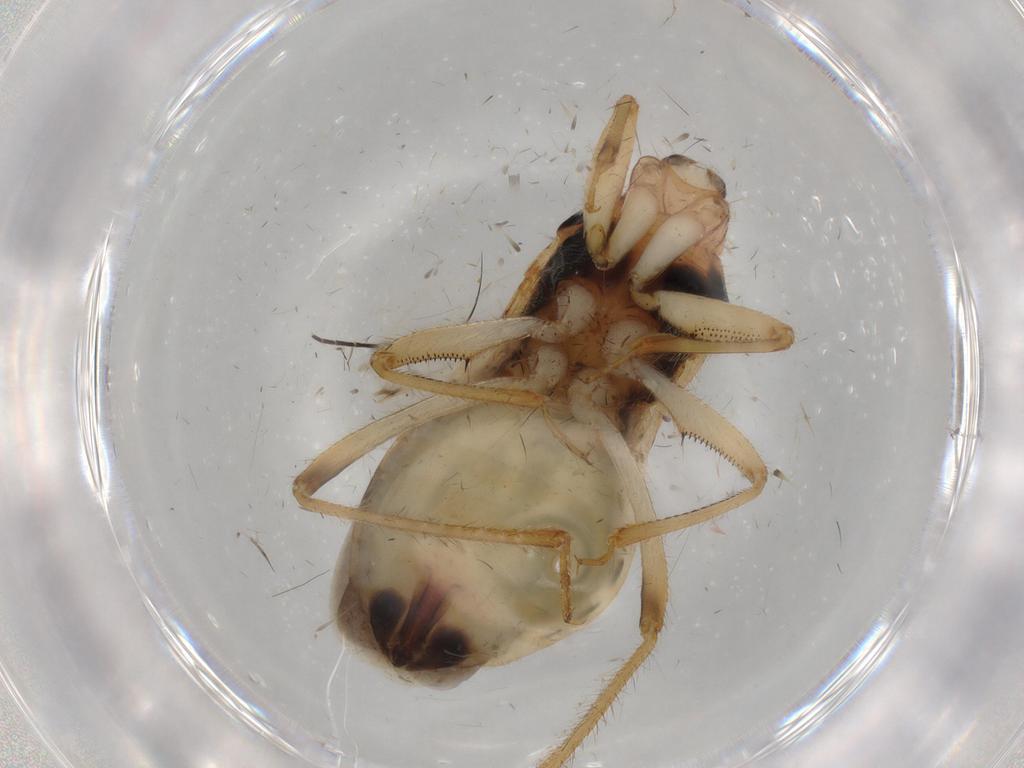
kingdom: Animalia
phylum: Arthropoda
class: Insecta
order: Hemiptera
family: Nabidae
